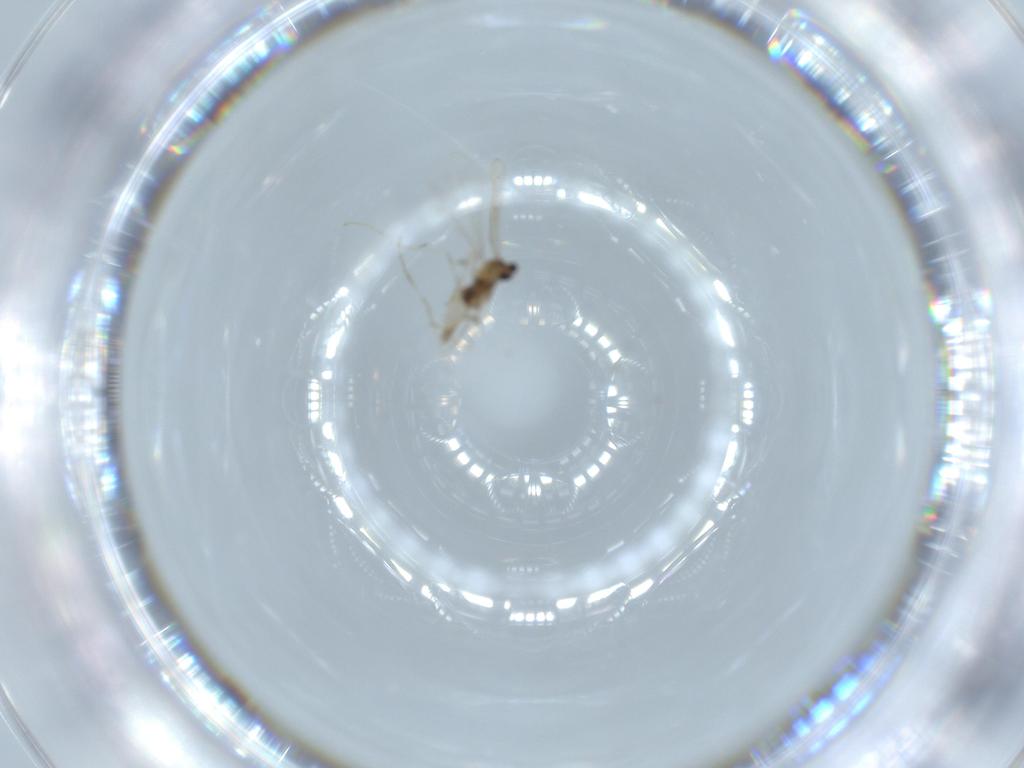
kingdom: Animalia
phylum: Arthropoda
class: Insecta
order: Diptera
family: Cecidomyiidae
